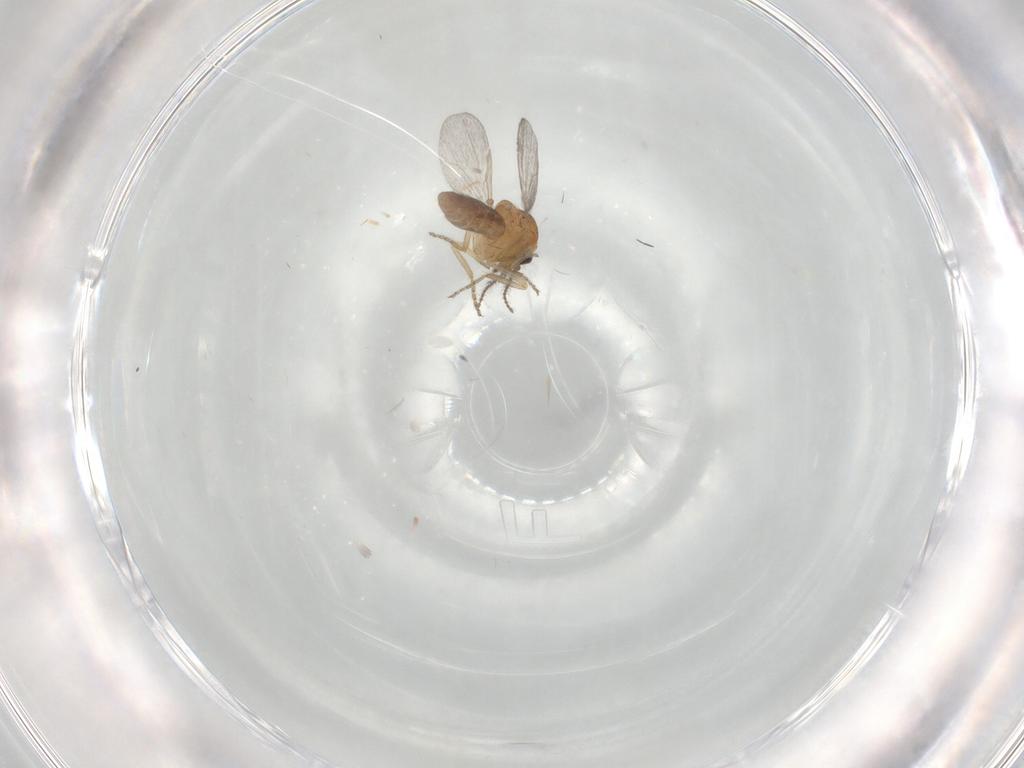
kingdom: Animalia
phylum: Arthropoda
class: Insecta
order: Diptera
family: Ceratopogonidae
